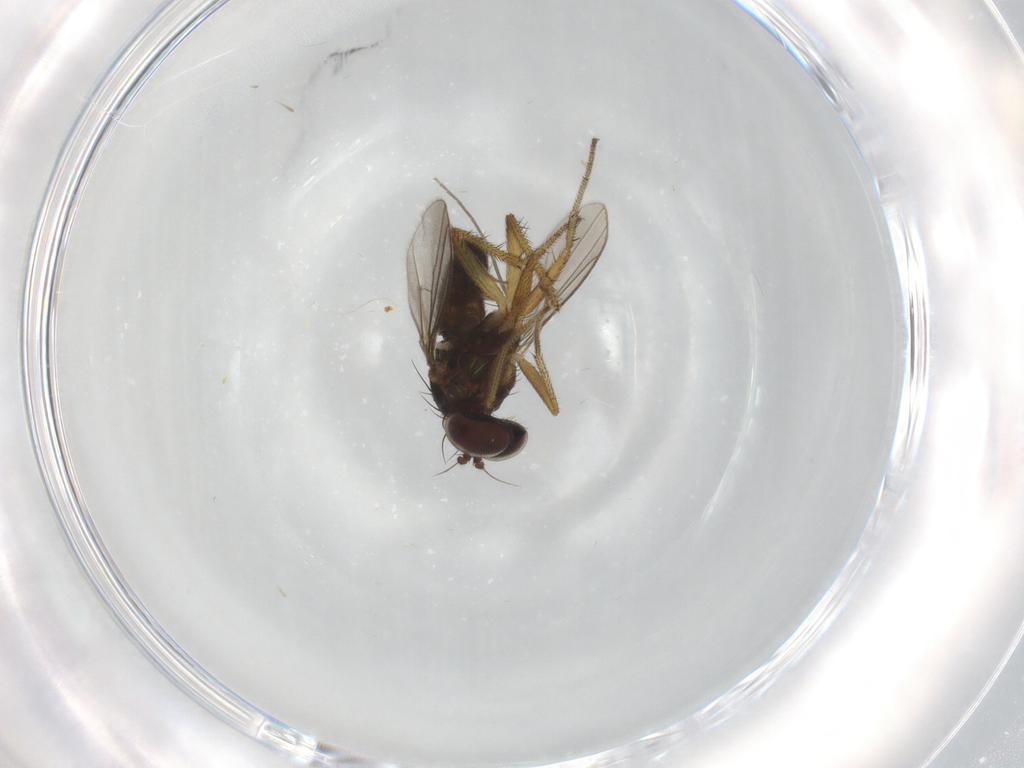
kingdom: Animalia
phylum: Arthropoda
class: Insecta
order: Diptera
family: Chironomidae
